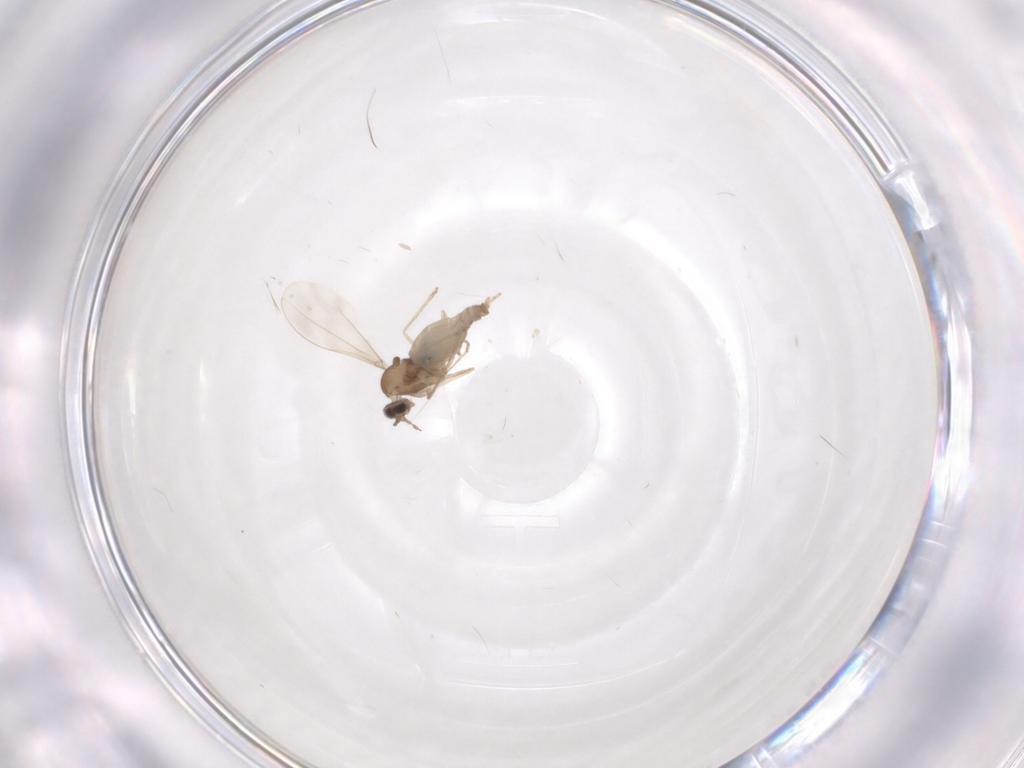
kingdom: Animalia
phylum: Arthropoda
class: Insecta
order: Diptera
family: Cecidomyiidae
